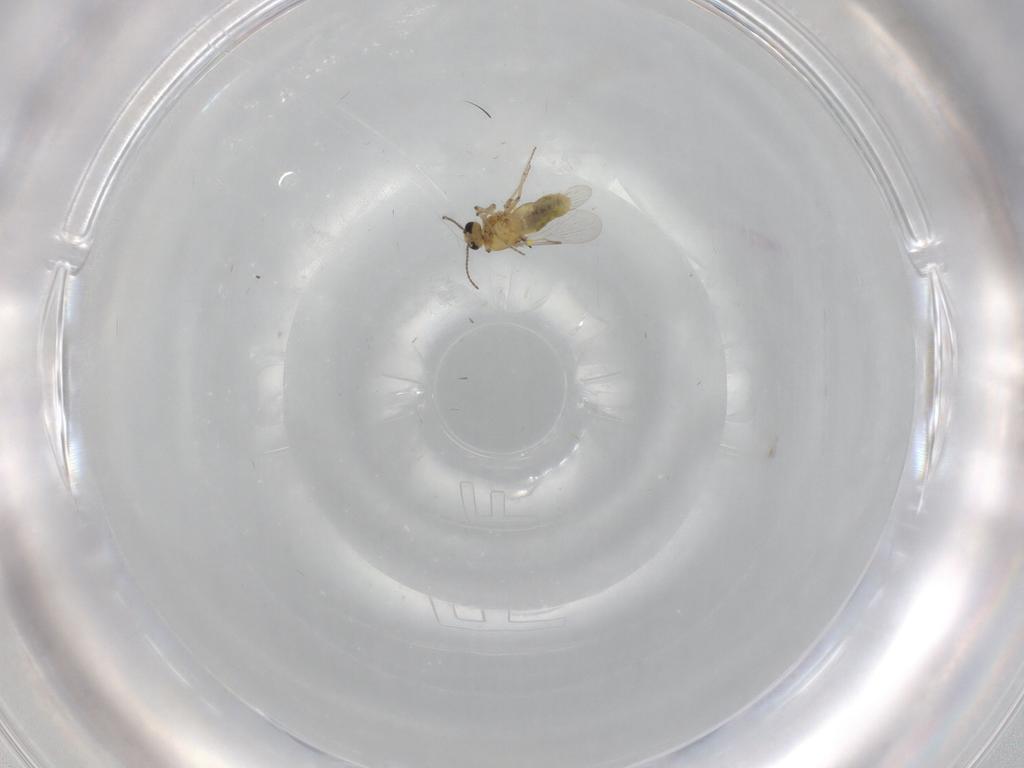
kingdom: Animalia
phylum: Arthropoda
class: Insecta
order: Diptera
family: Ceratopogonidae
